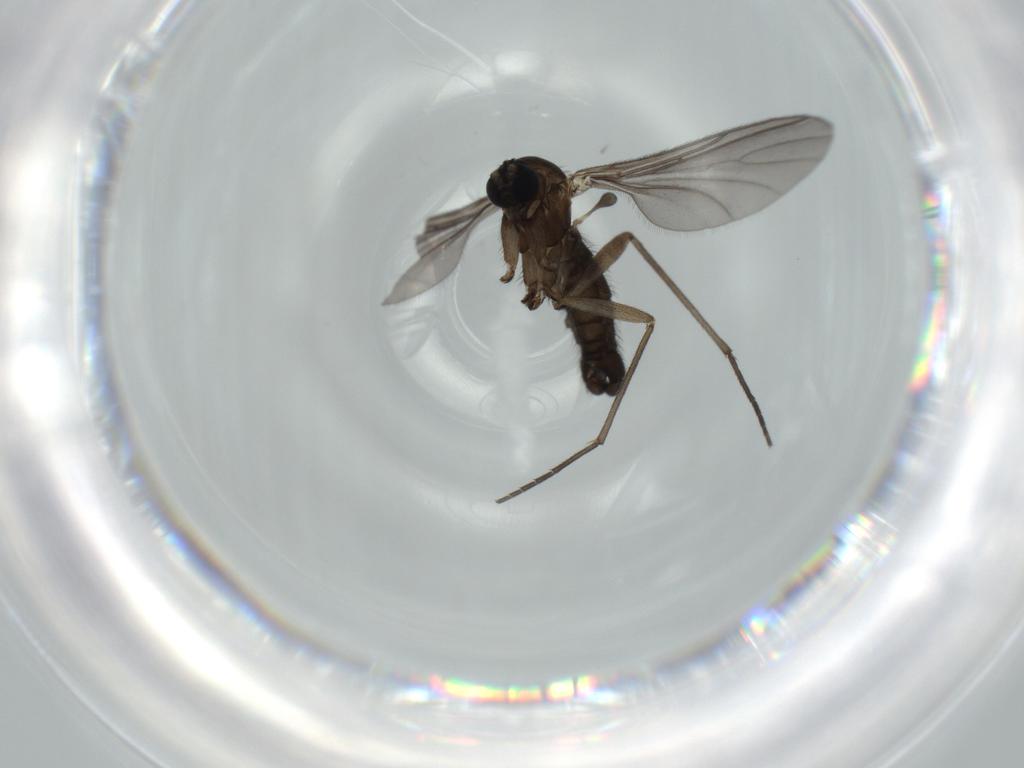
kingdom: Animalia
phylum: Arthropoda
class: Insecta
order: Diptera
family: Sciaridae
